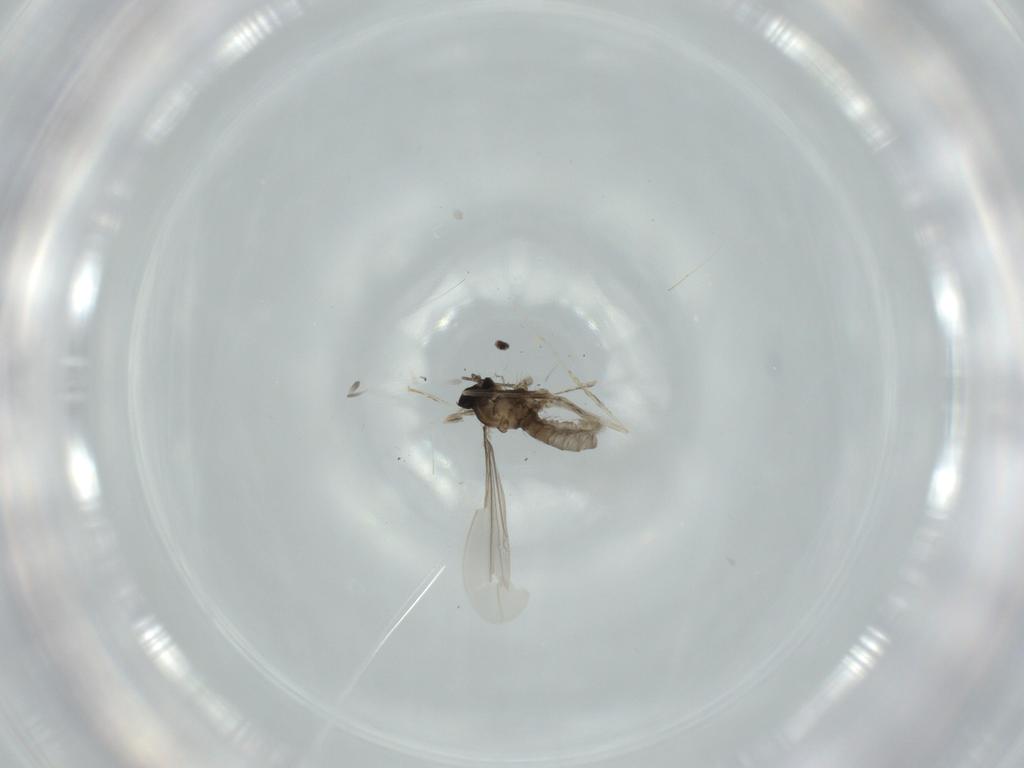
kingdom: Animalia
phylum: Arthropoda
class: Insecta
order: Diptera
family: Cecidomyiidae
